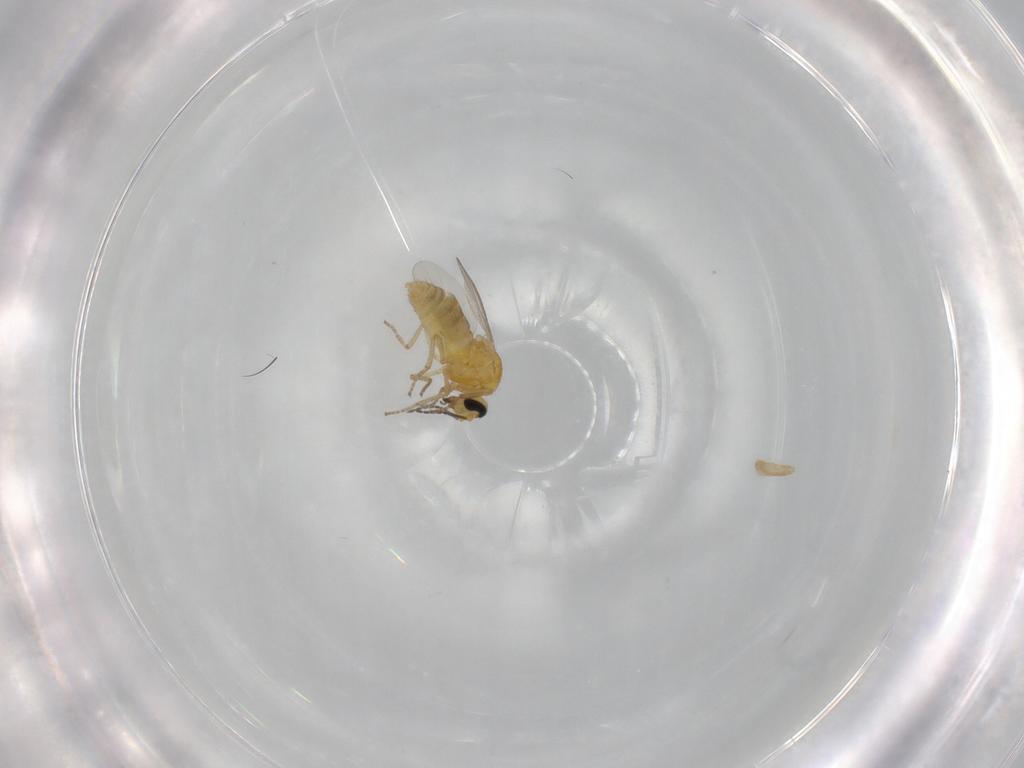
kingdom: Animalia
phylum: Arthropoda
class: Insecta
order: Diptera
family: Ceratopogonidae
